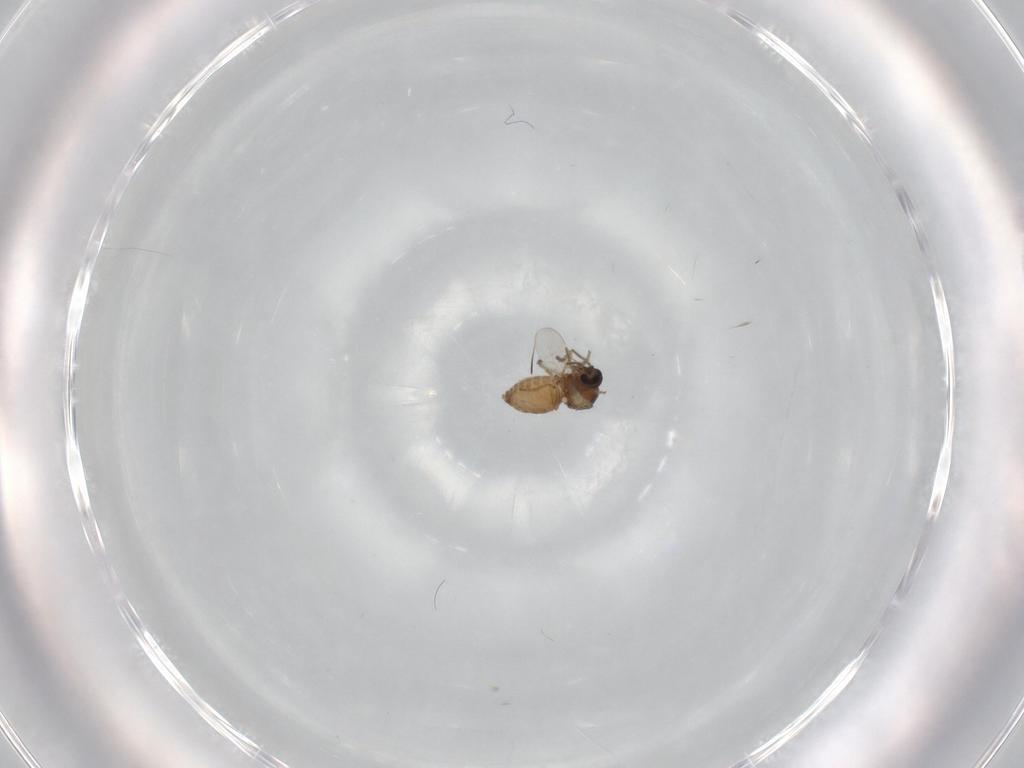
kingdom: Animalia
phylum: Arthropoda
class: Insecta
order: Diptera
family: Ceratopogonidae
